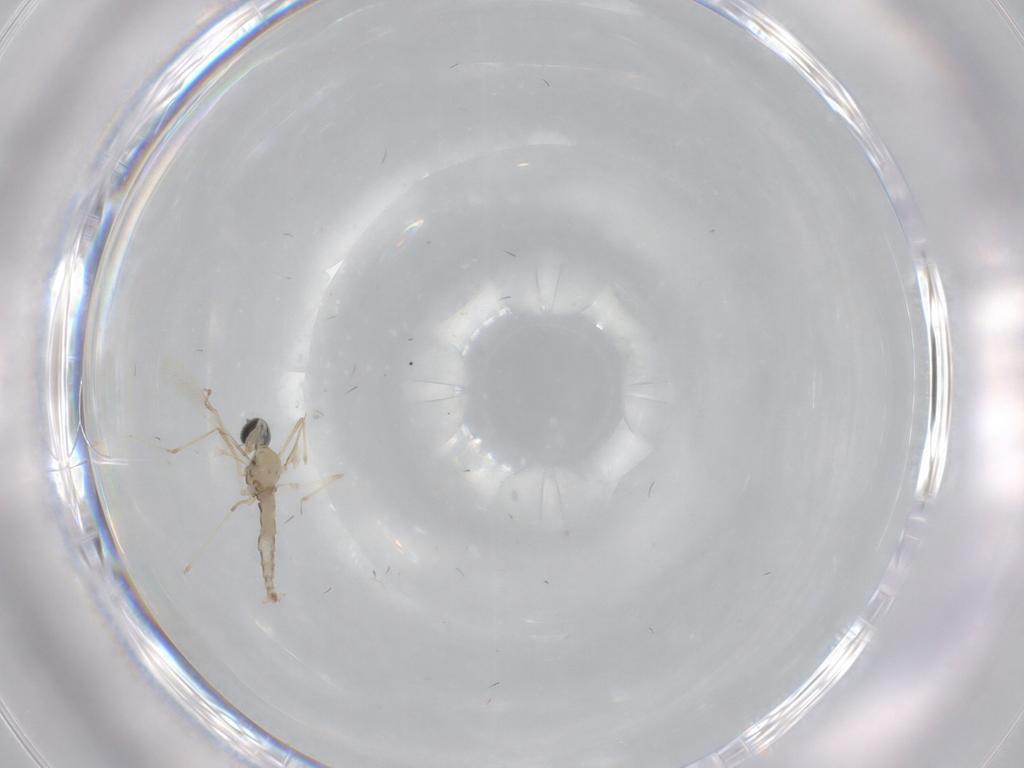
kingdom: Animalia
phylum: Arthropoda
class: Insecta
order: Diptera
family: Cecidomyiidae
